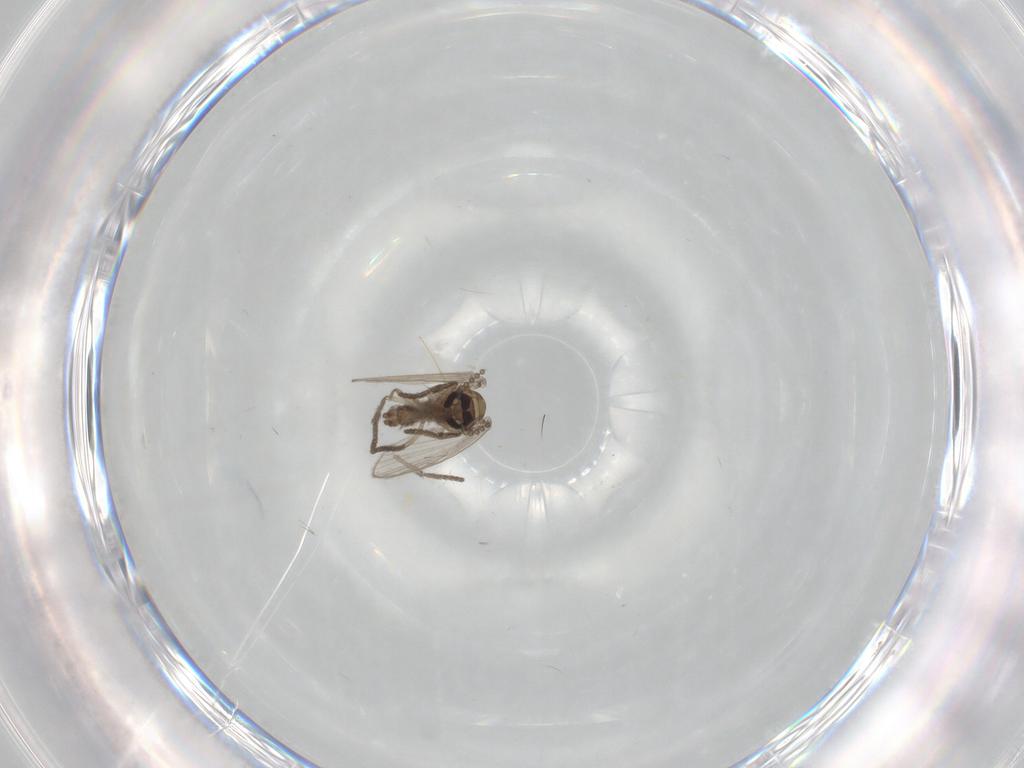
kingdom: Animalia
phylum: Arthropoda
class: Insecta
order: Diptera
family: Psychodidae
